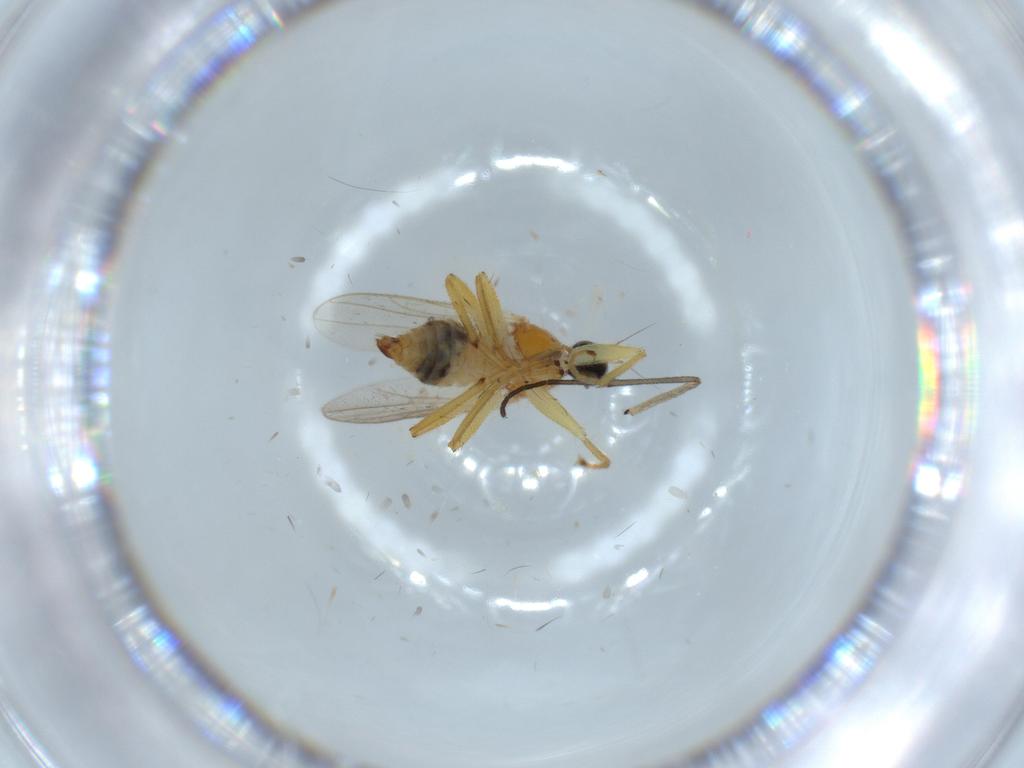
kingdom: Animalia
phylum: Arthropoda
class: Insecta
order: Diptera
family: Hybotidae
